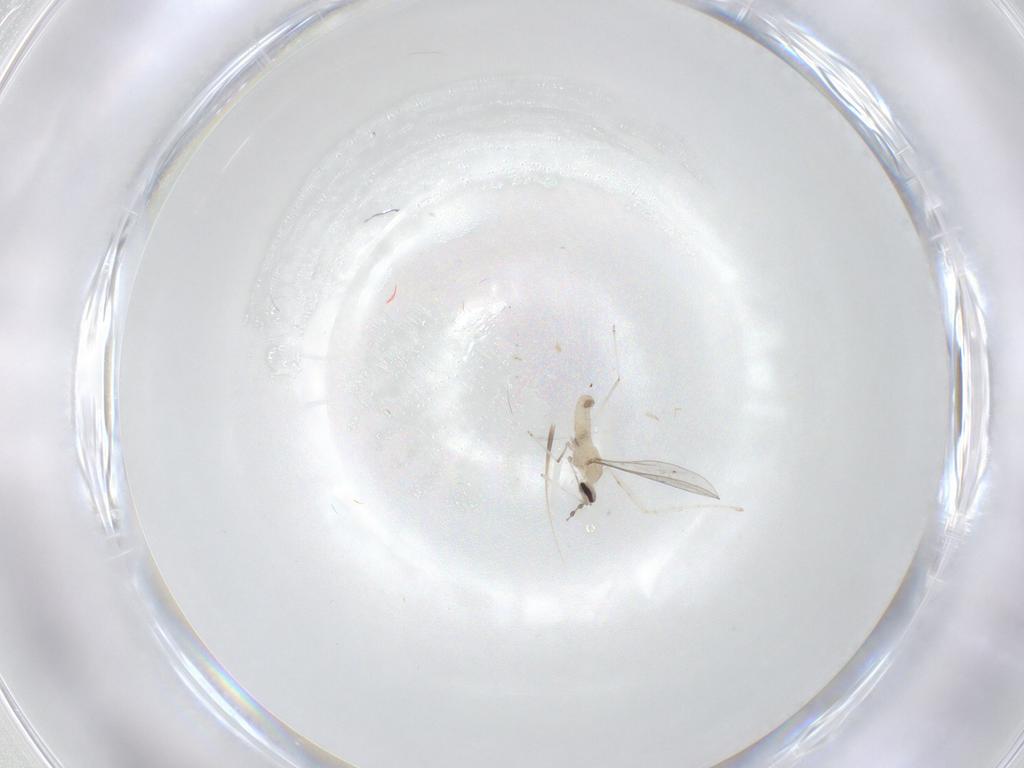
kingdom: Animalia
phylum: Arthropoda
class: Insecta
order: Diptera
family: Cecidomyiidae
